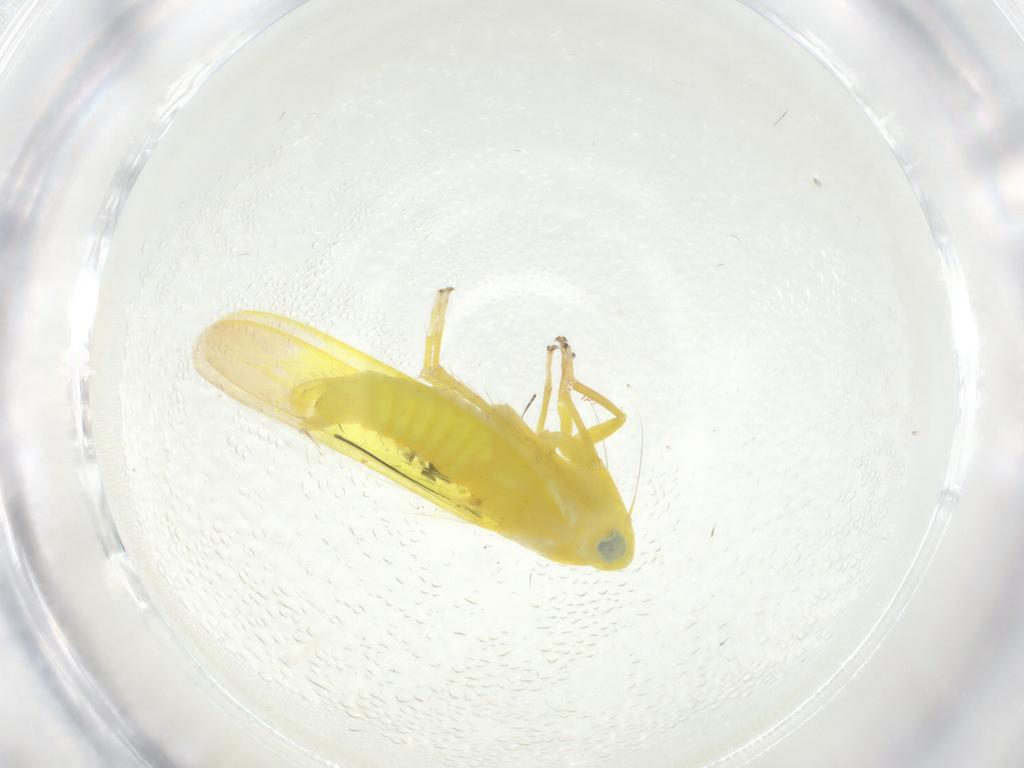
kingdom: Animalia
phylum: Arthropoda
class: Insecta
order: Hemiptera
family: Cicadellidae
